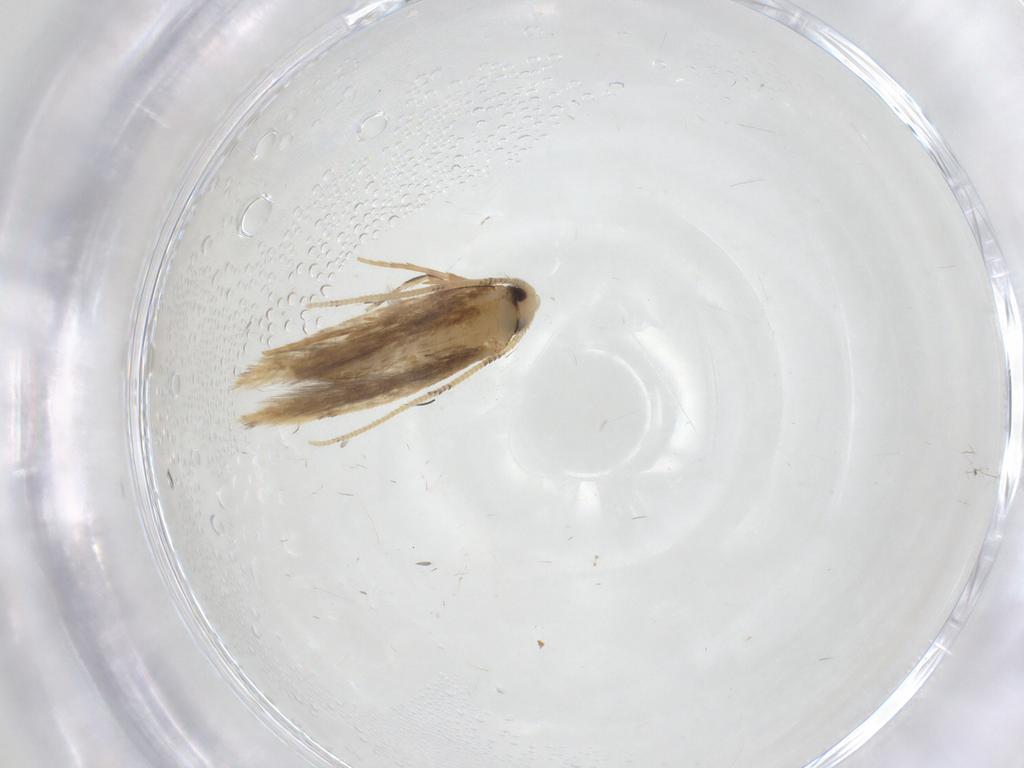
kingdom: Animalia
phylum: Arthropoda
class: Insecta
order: Lepidoptera
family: Tineidae
